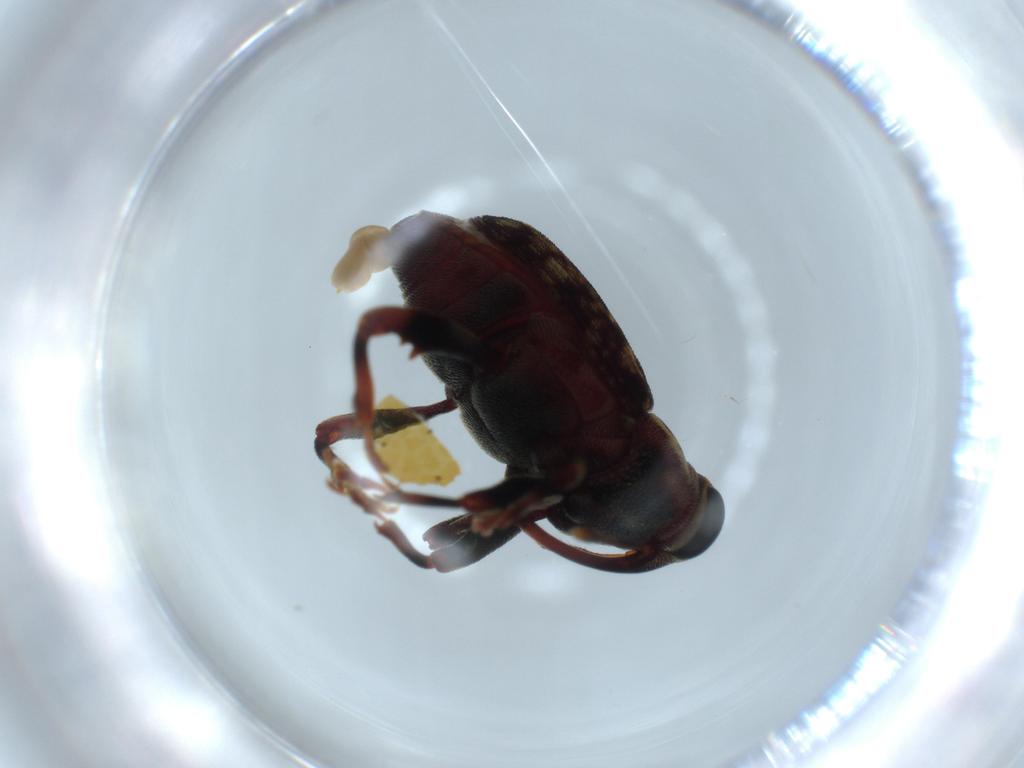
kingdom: Animalia
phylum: Arthropoda
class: Insecta
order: Coleoptera
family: Curculionidae
